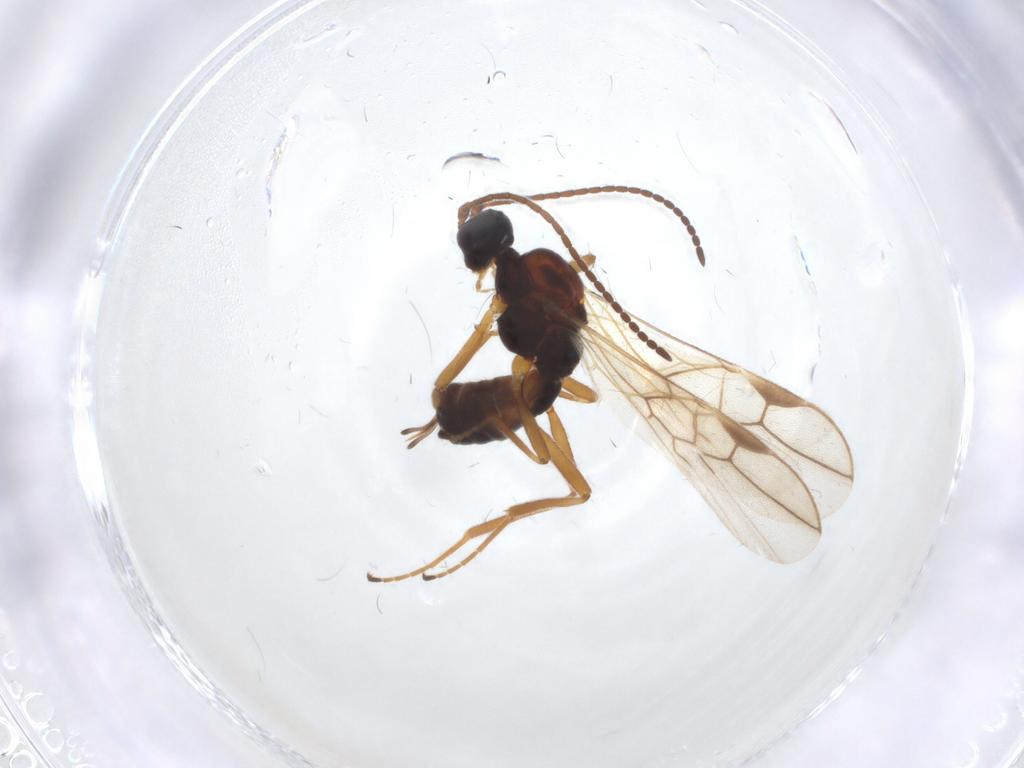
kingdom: Animalia
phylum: Arthropoda
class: Insecta
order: Hymenoptera
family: Braconidae
